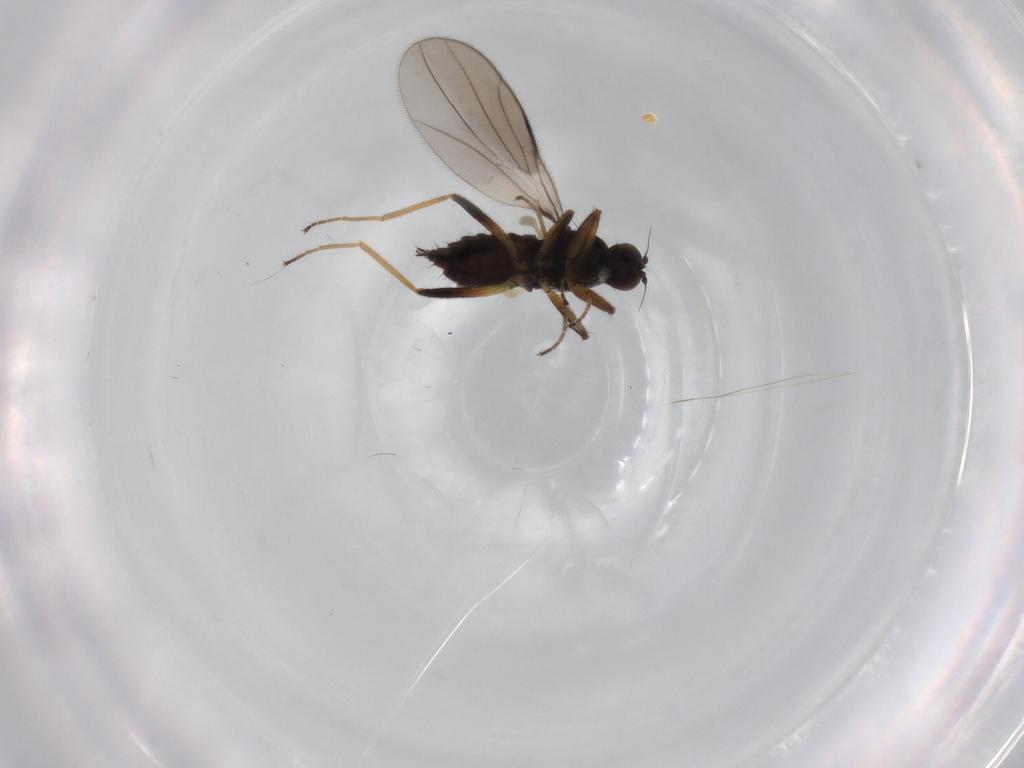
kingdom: Animalia
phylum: Arthropoda
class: Insecta
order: Diptera
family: Hybotidae
